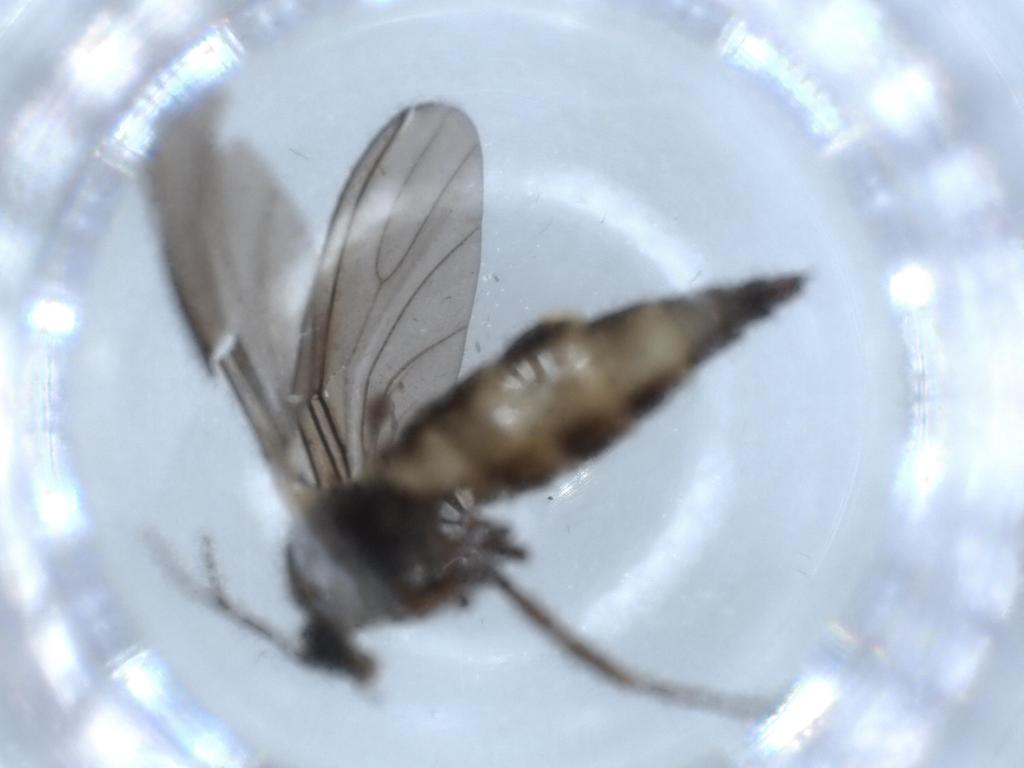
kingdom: Animalia
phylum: Arthropoda
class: Insecta
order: Diptera
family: Sciaridae
